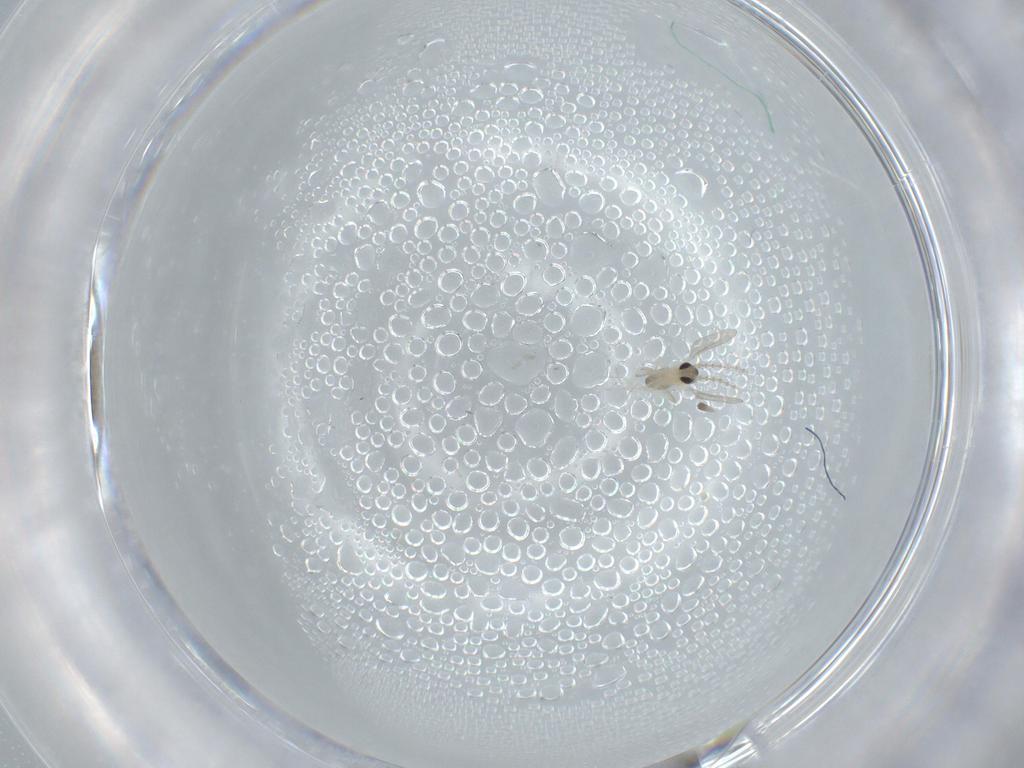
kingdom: Animalia
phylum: Arthropoda
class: Insecta
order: Diptera
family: Cecidomyiidae
